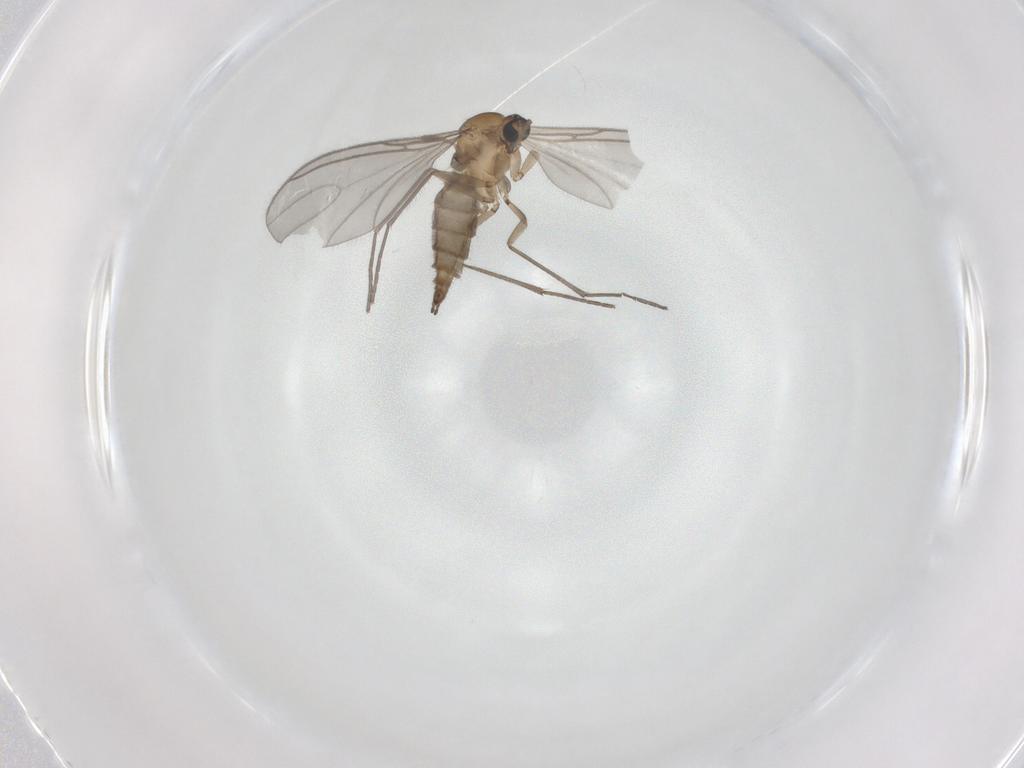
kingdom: Animalia
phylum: Arthropoda
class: Insecta
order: Diptera
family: Sciaridae
